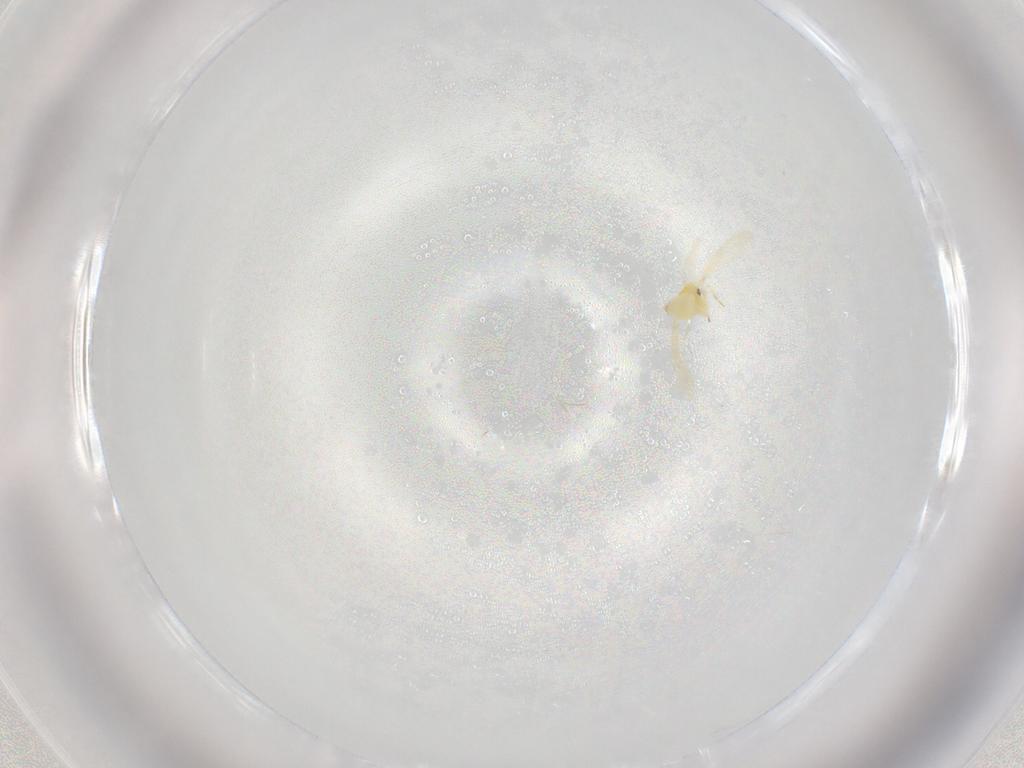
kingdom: Animalia
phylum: Arthropoda
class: Insecta
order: Hemiptera
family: Aleyrodidae
